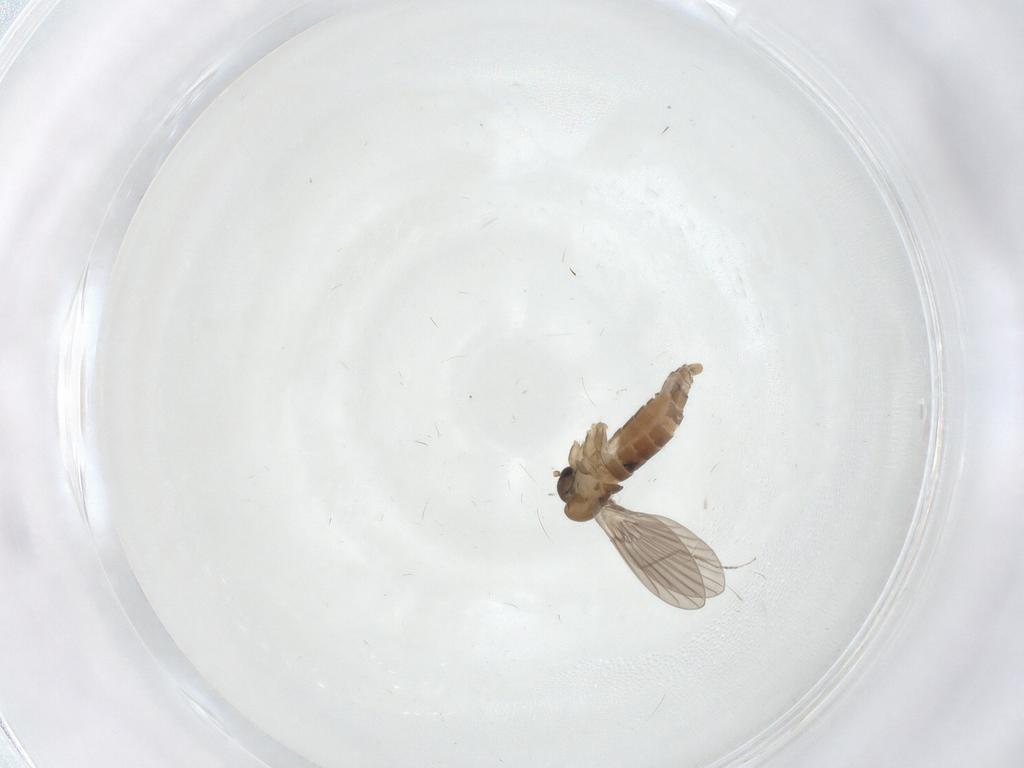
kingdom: Animalia
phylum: Arthropoda
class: Insecta
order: Diptera
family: Cecidomyiidae
